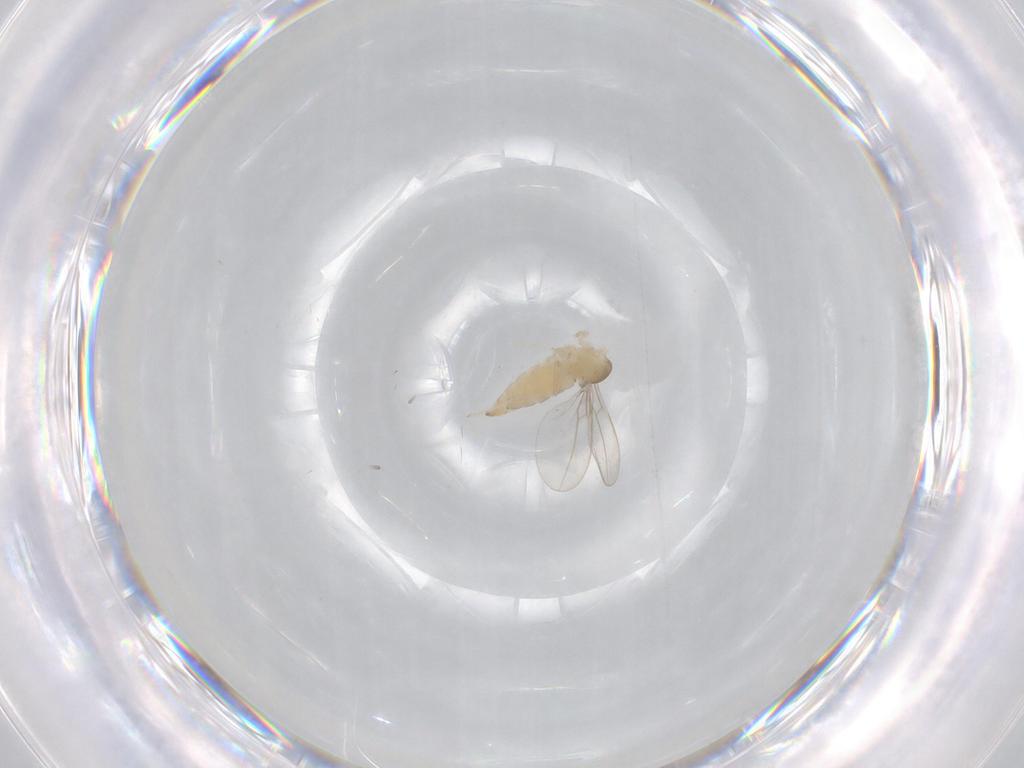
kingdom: Animalia
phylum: Arthropoda
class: Insecta
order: Diptera
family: Cecidomyiidae
